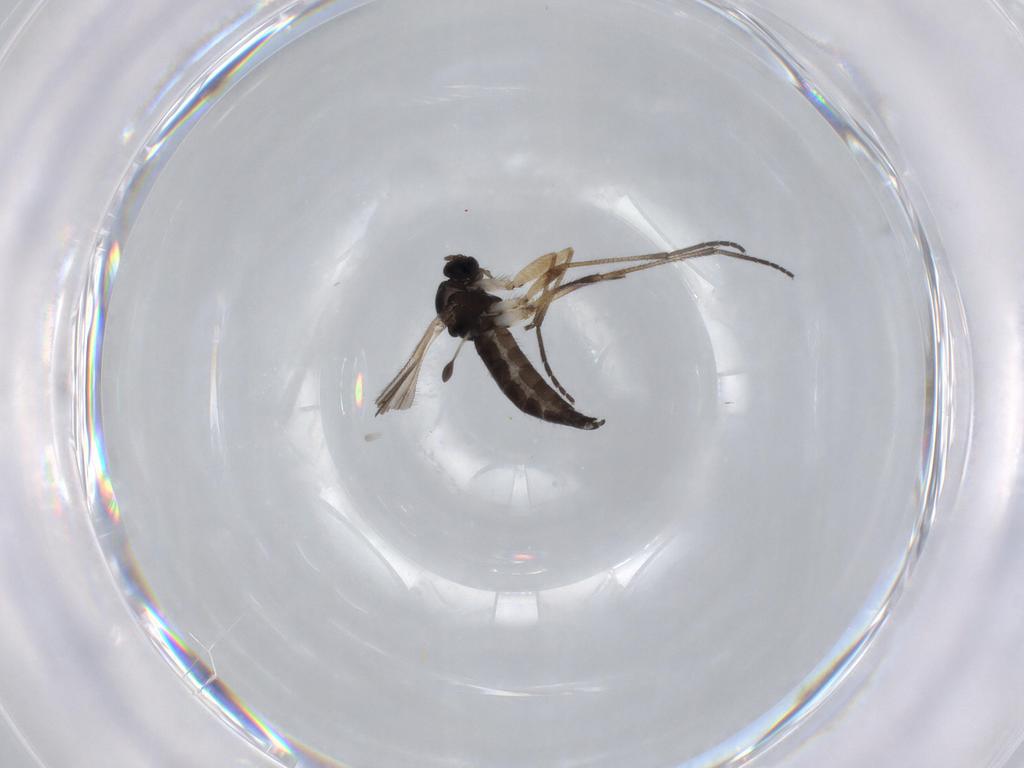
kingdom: Animalia
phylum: Arthropoda
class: Insecta
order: Diptera
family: Sciaridae
